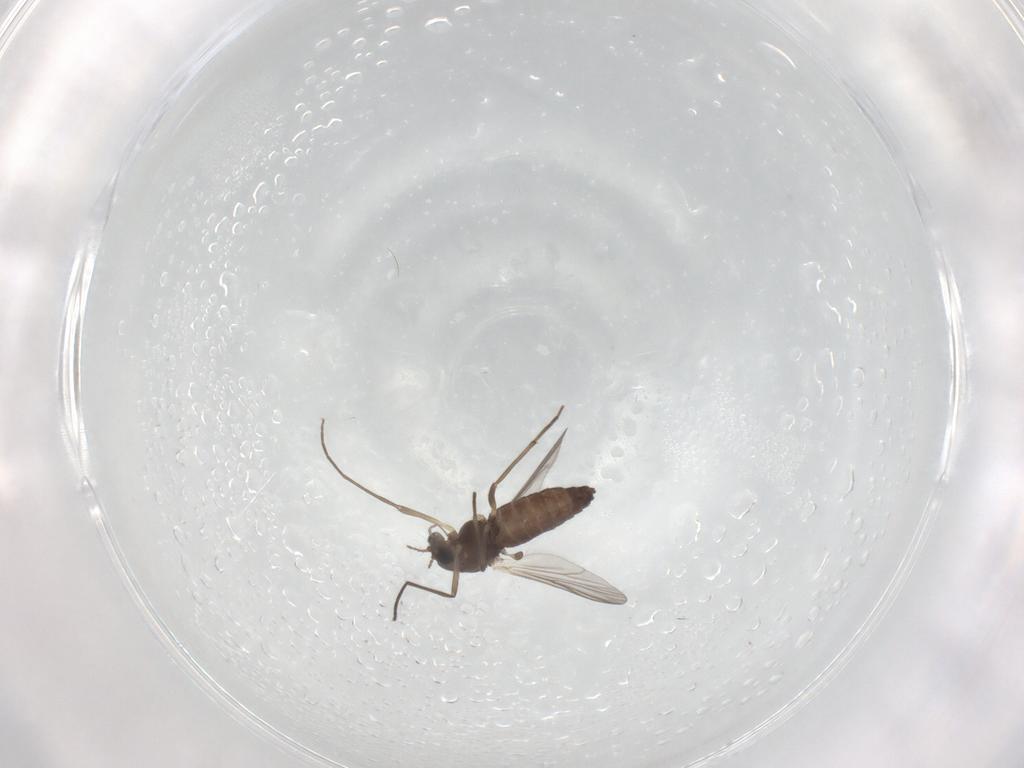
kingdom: Animalia
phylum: Arthropoda
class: Insecta
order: Diptera
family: Chironomidae
